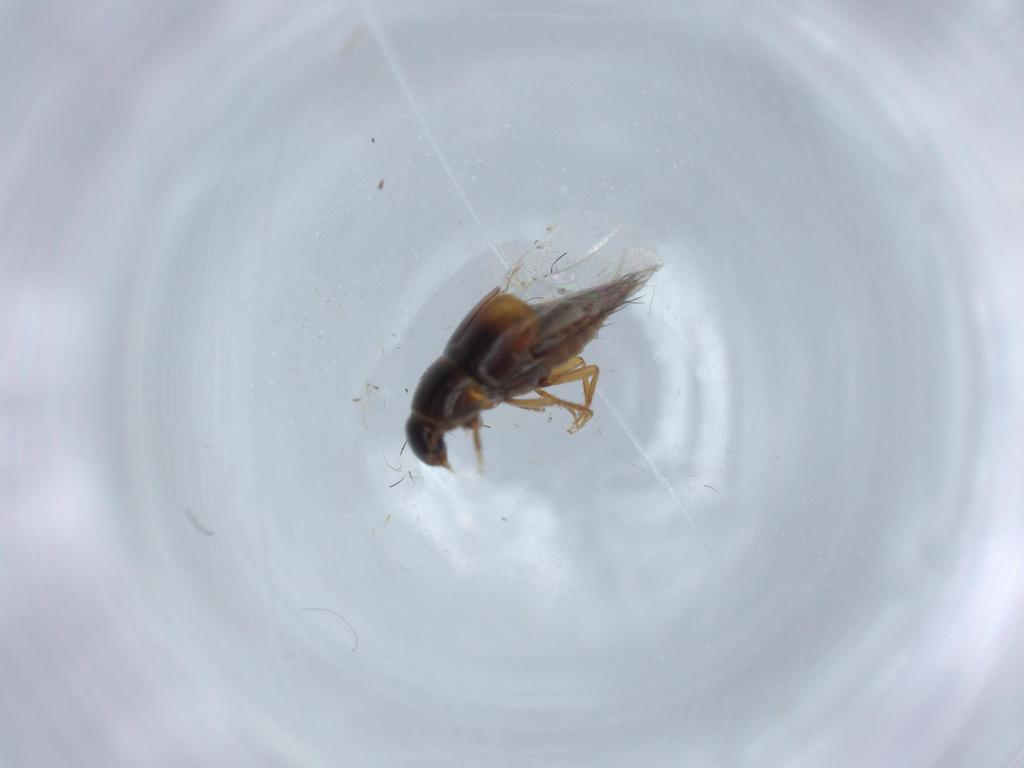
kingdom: Animalia
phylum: Arthropoda
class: Insecta
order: Coleoptera
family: Staphylinidae
